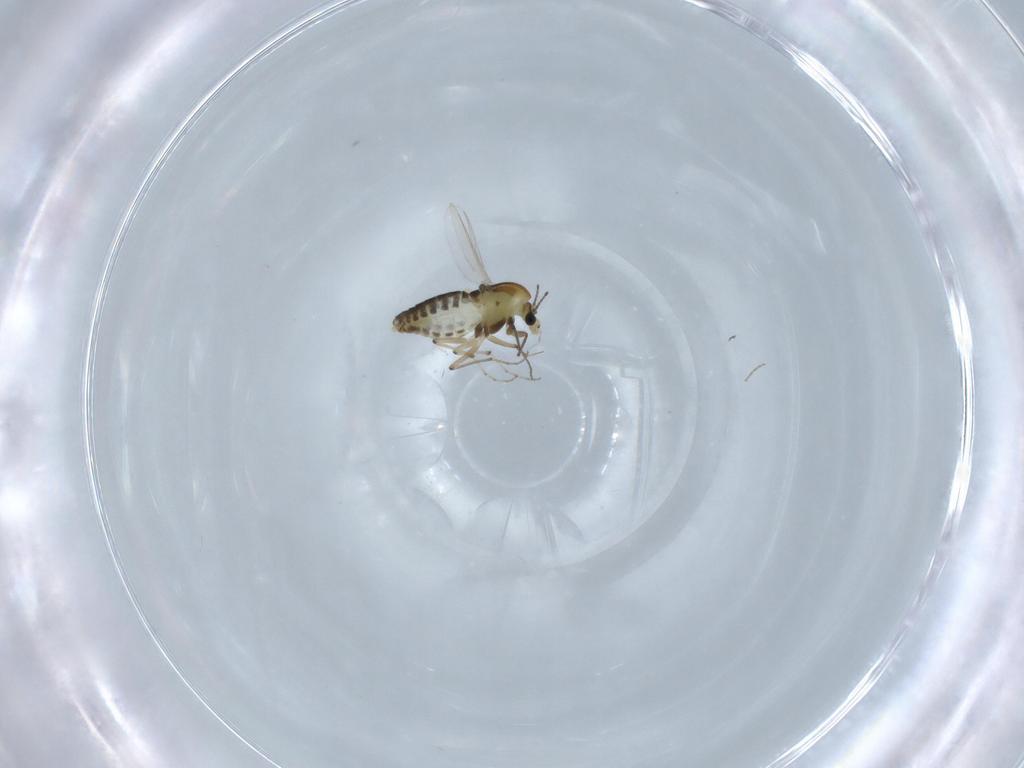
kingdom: Animalia
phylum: Arthropoda
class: Insecta
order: Diptera
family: Chironomidae
